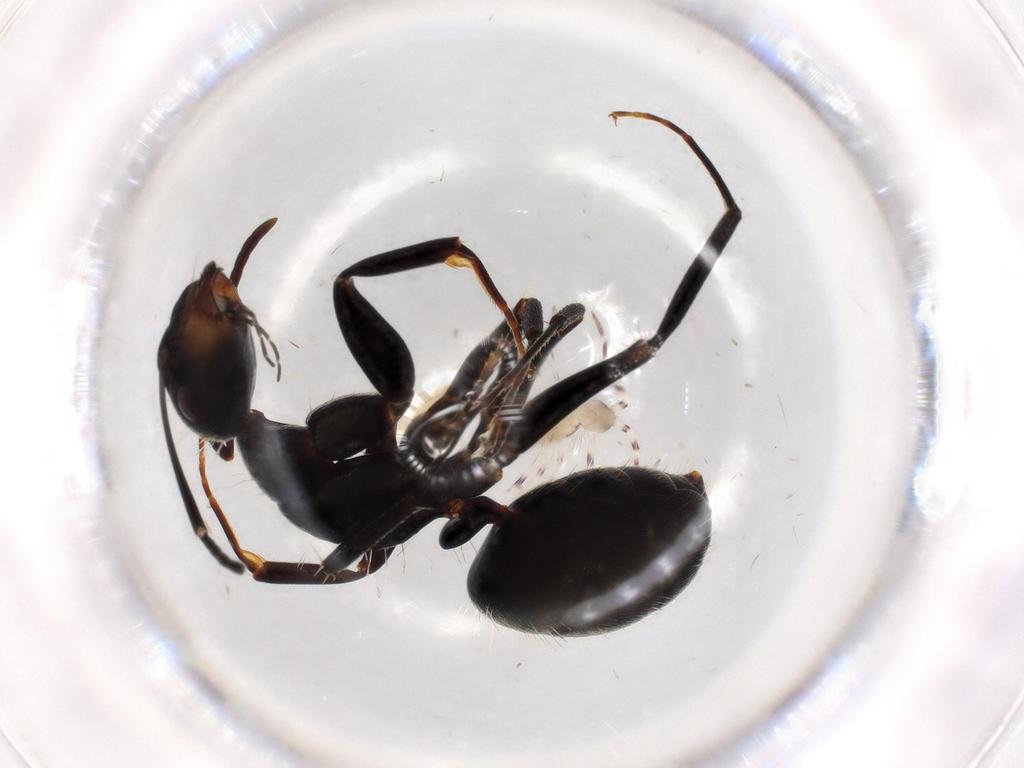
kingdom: Animalia
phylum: Arthropoda
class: Collembola
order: Entomobryomorpha
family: Entomobryidae
